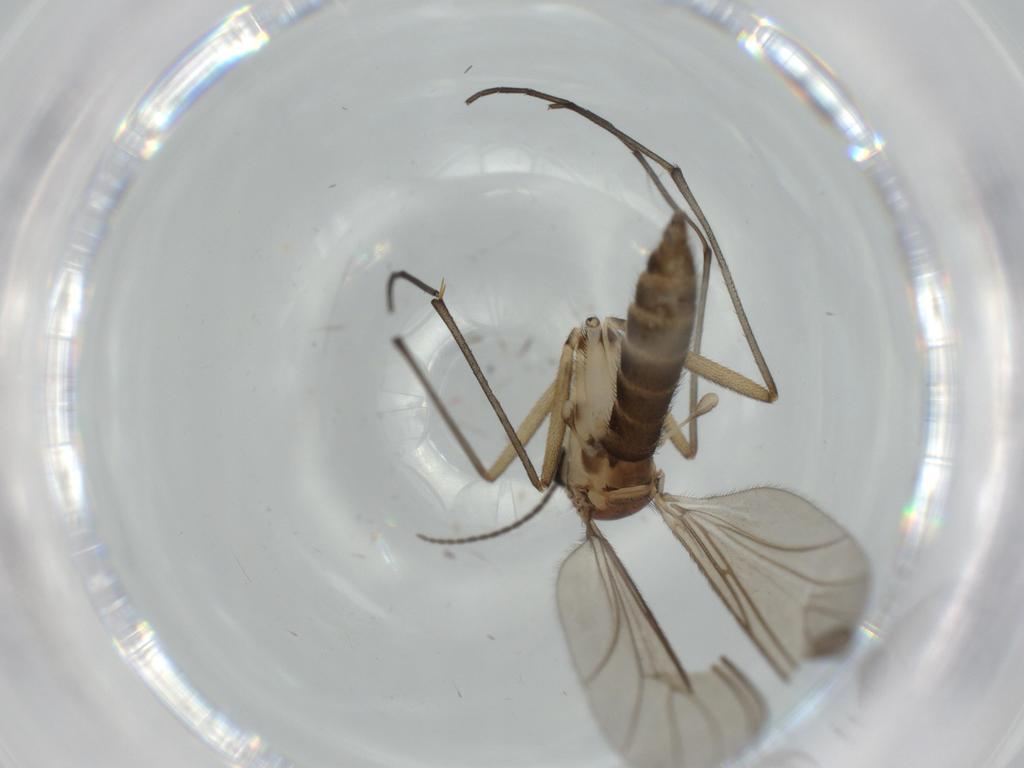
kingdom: Animalia
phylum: Arthropoda
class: Insecta
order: Diptera
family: Sciaridae
